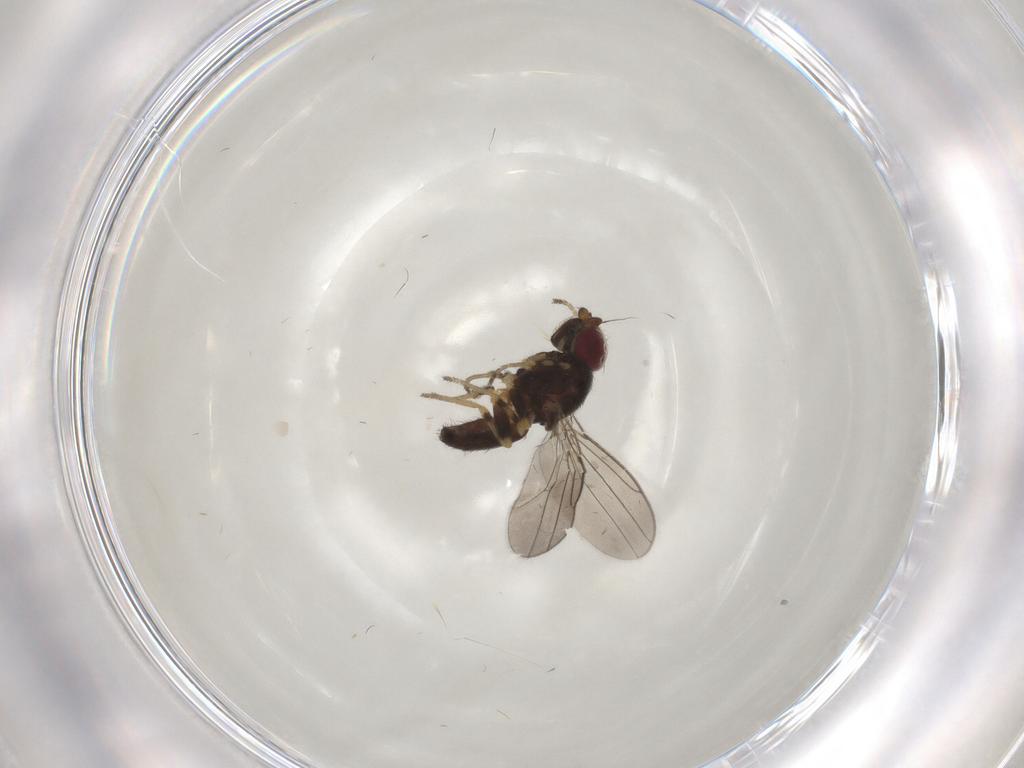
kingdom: Animalia
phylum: Arthropoda
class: Insecta
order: Diptera
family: Chloropidae
